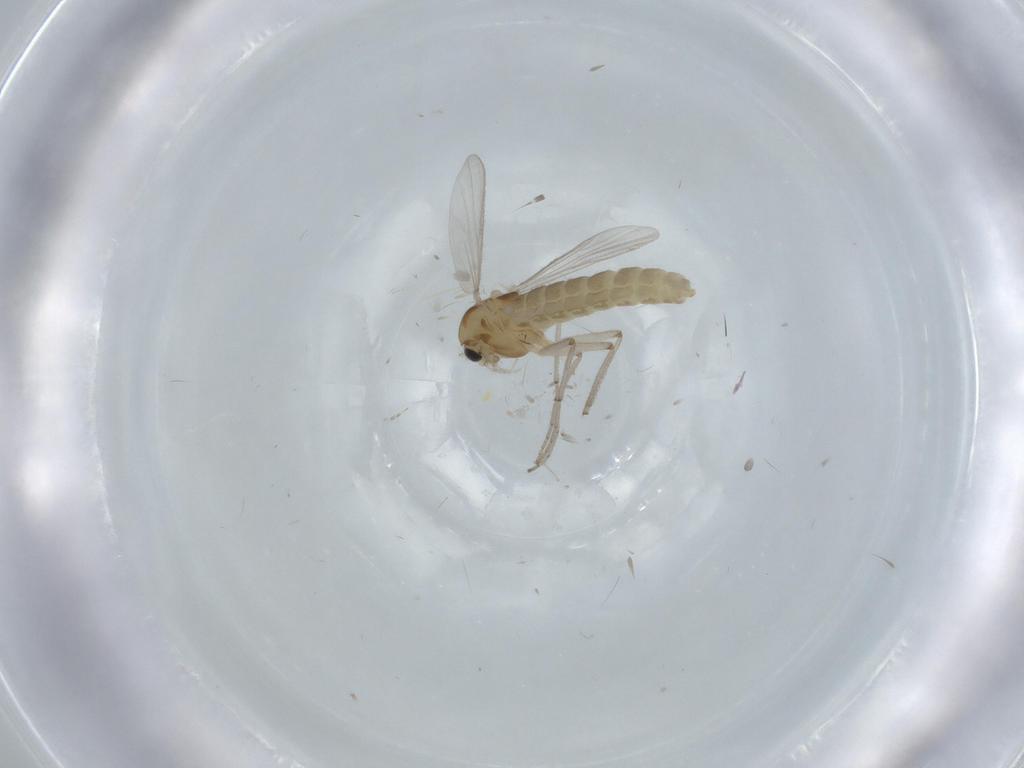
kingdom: Animalia
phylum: Arthropoda
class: Insecta
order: Diptera
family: Chironomidae
